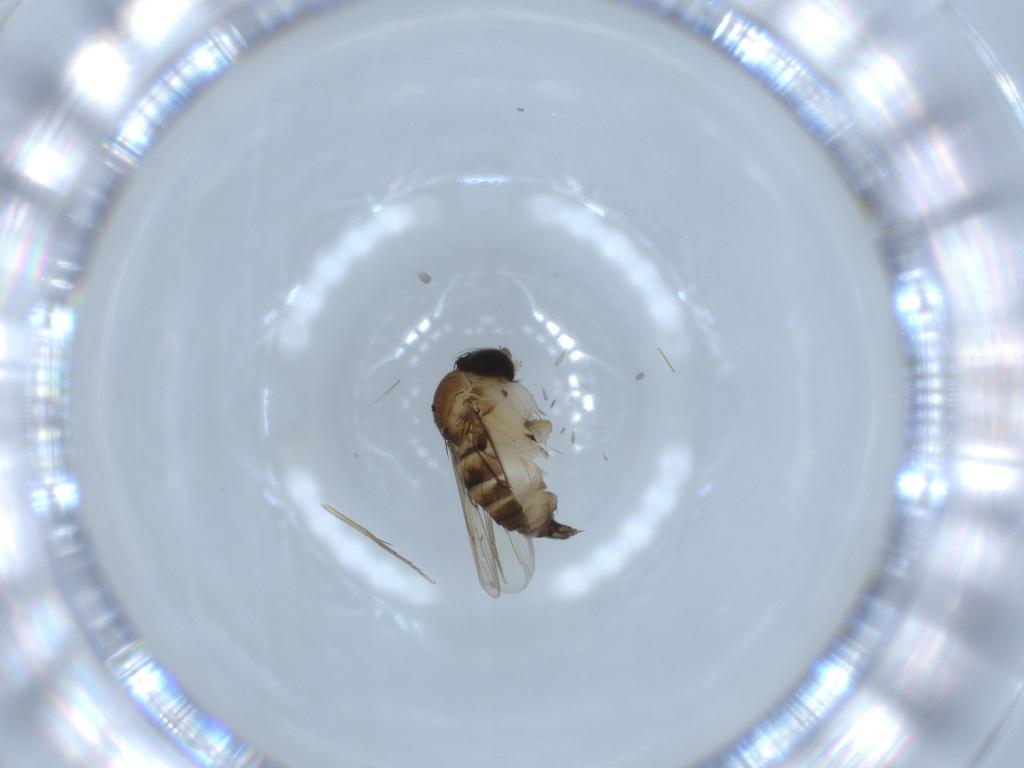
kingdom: Animalia
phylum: Arthropoda
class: Insecta
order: Diptera
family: Phoridae
